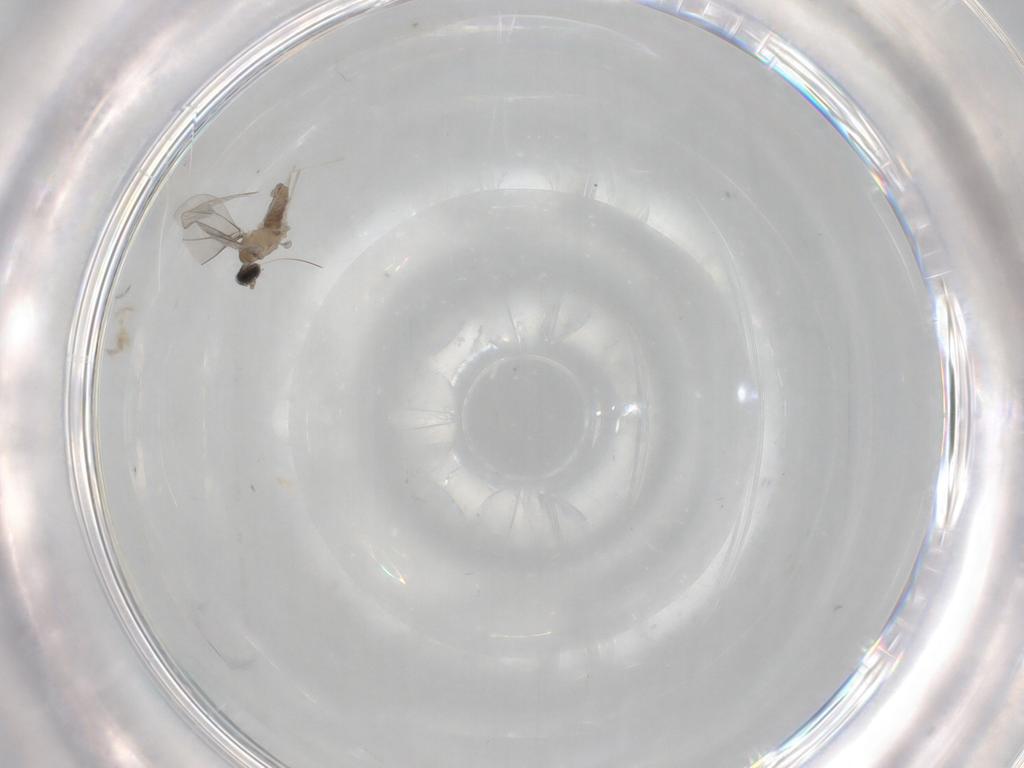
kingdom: Animalia
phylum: Arthropoda
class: Insecta
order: Diptera
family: Cecidomyiidae
